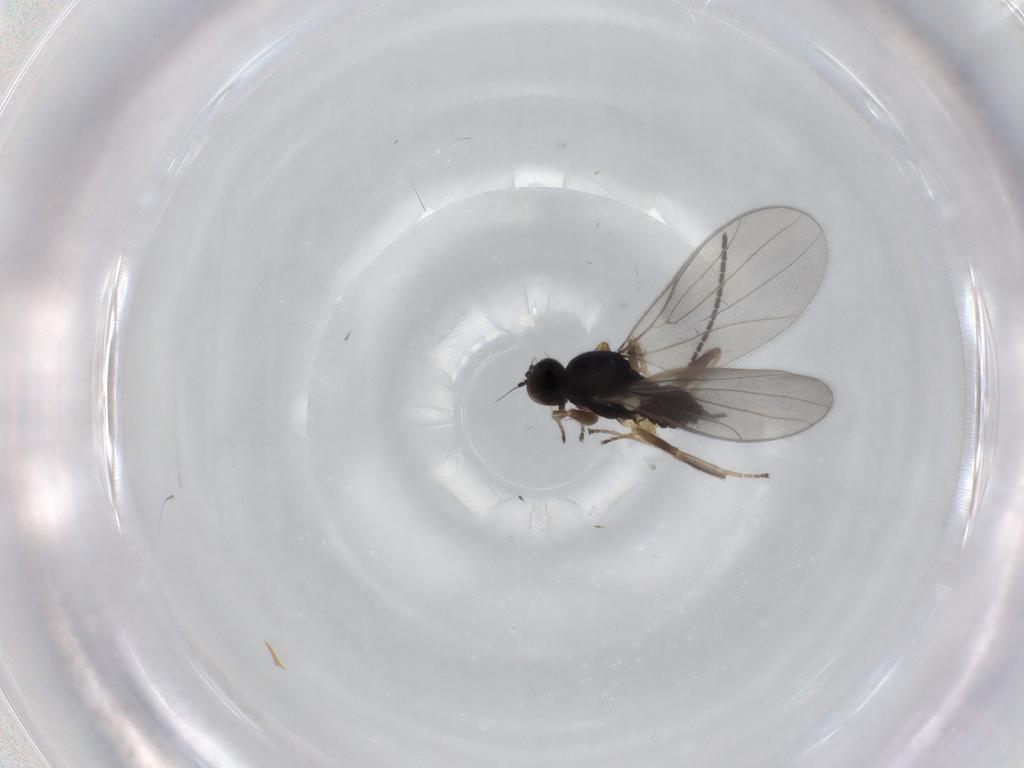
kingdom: Animalia
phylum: Arthropoda
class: Insecta
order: Diptera
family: Hybotidae
